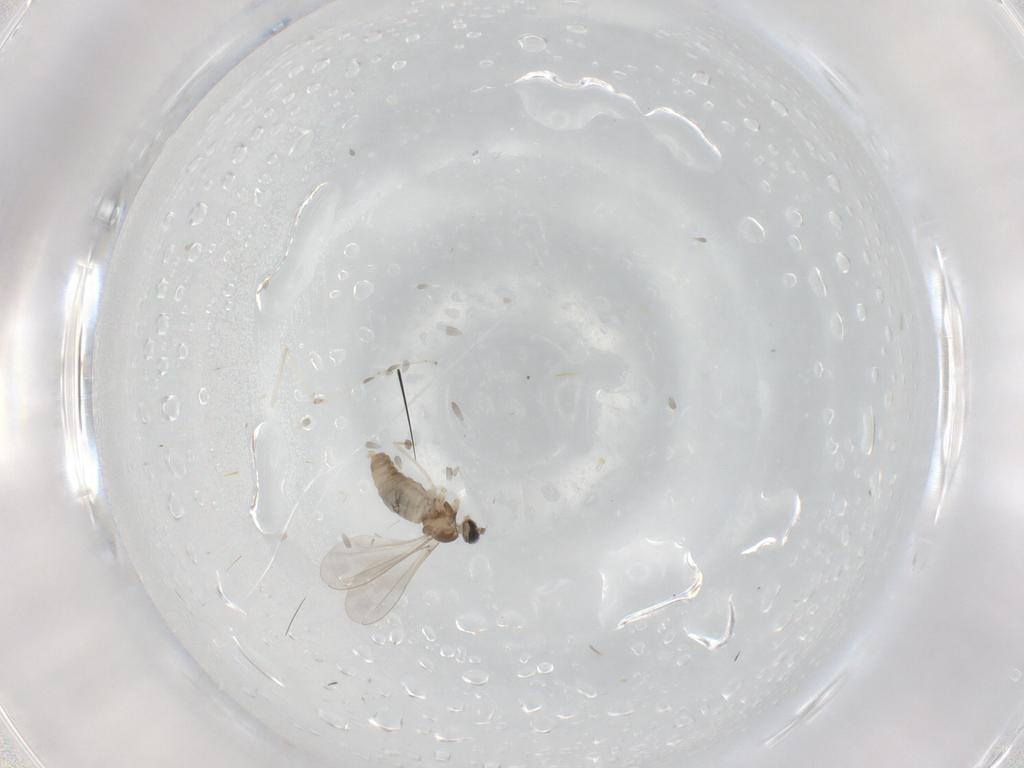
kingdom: Animalia
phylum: Arthropoda
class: Insecta
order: Diptera
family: Cecidomyiidae
